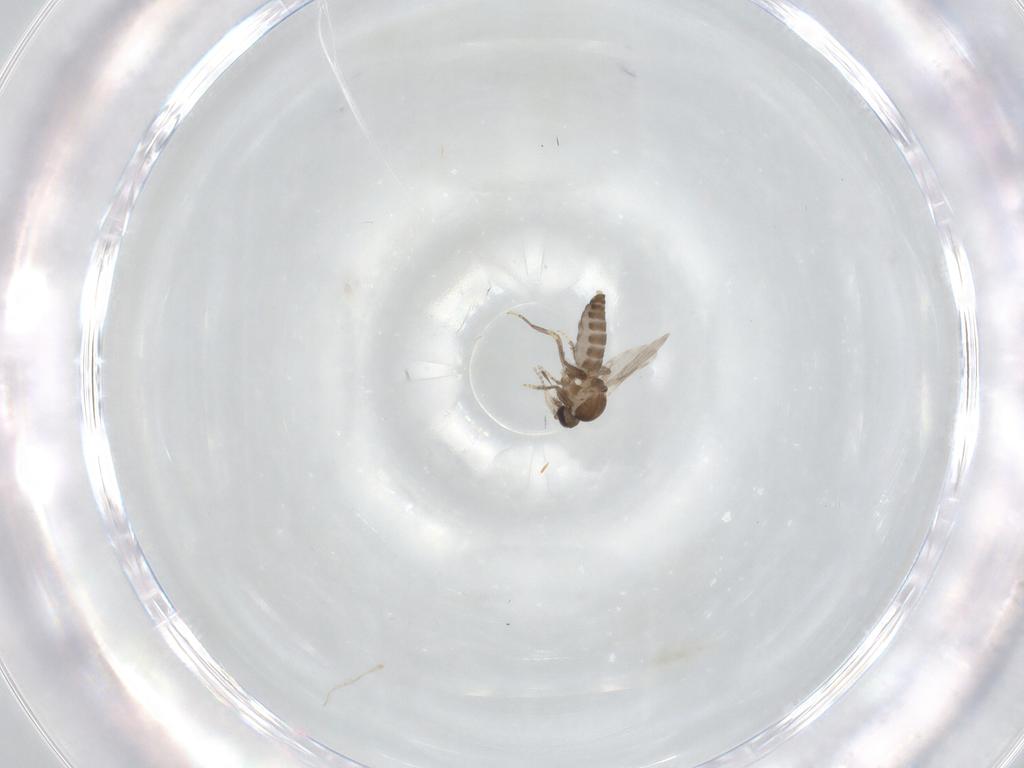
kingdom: Animalia
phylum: Arthropoda
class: Insecta
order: Diptera
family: Ceratopogonidae
